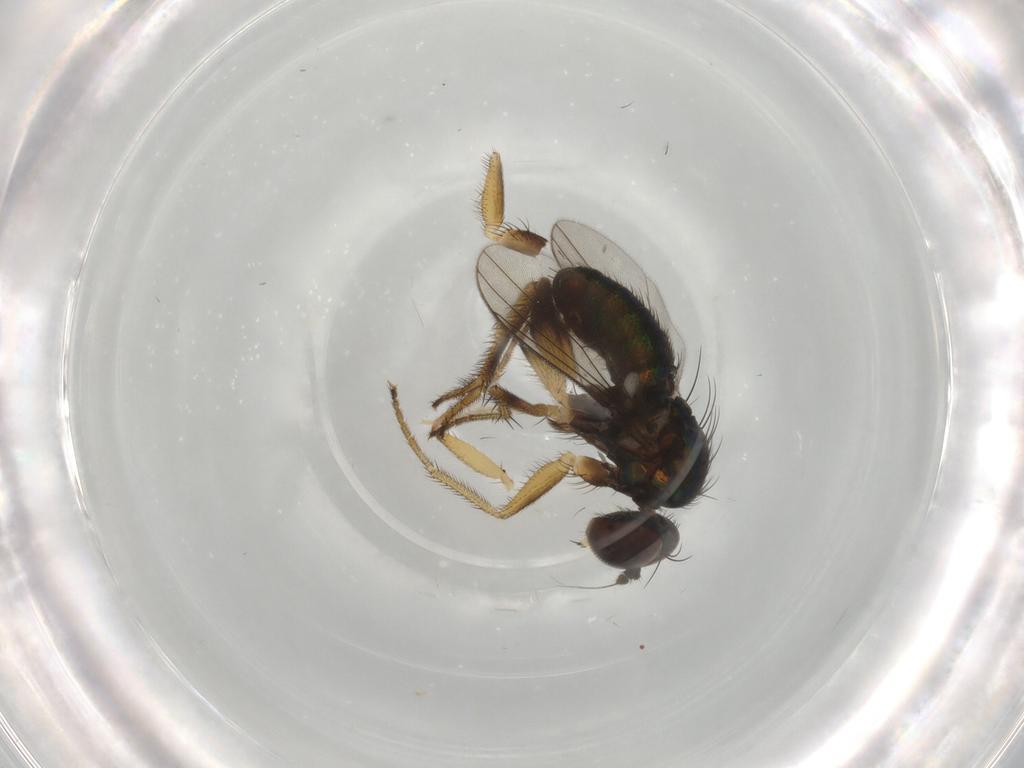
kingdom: Animalia
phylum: Arthropoda
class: Insecta
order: Diptera
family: Dolichopodidae
